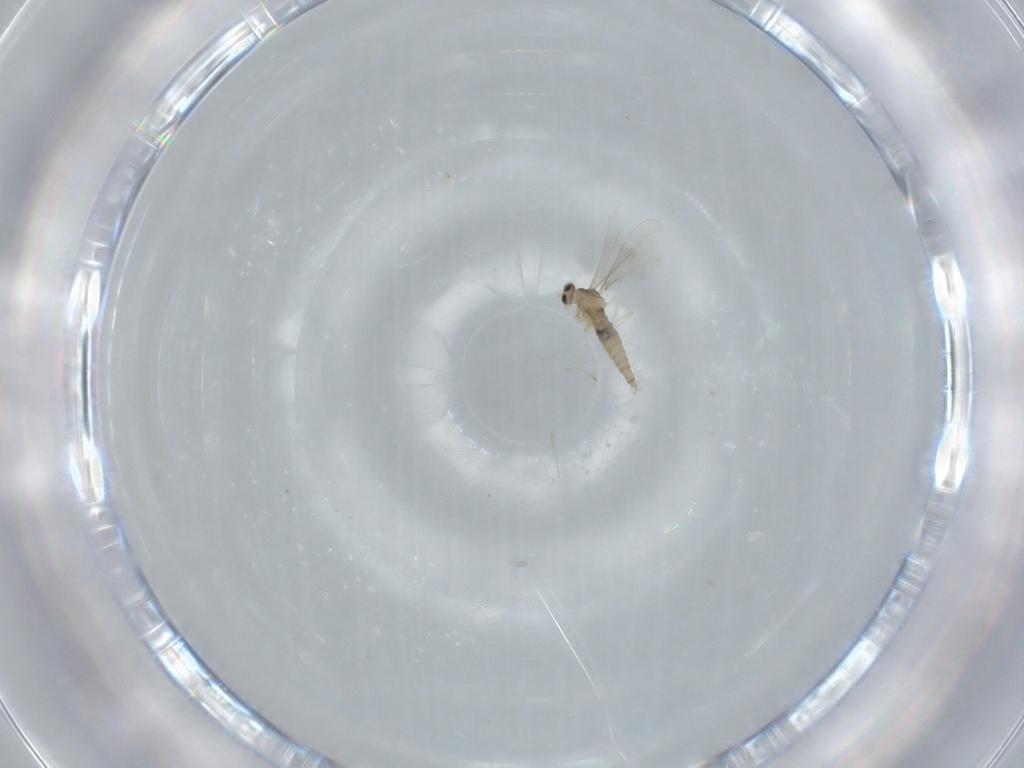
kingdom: Animalia
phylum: Arthropoda
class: Insecta
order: Diptera
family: Cecidomyiidae
